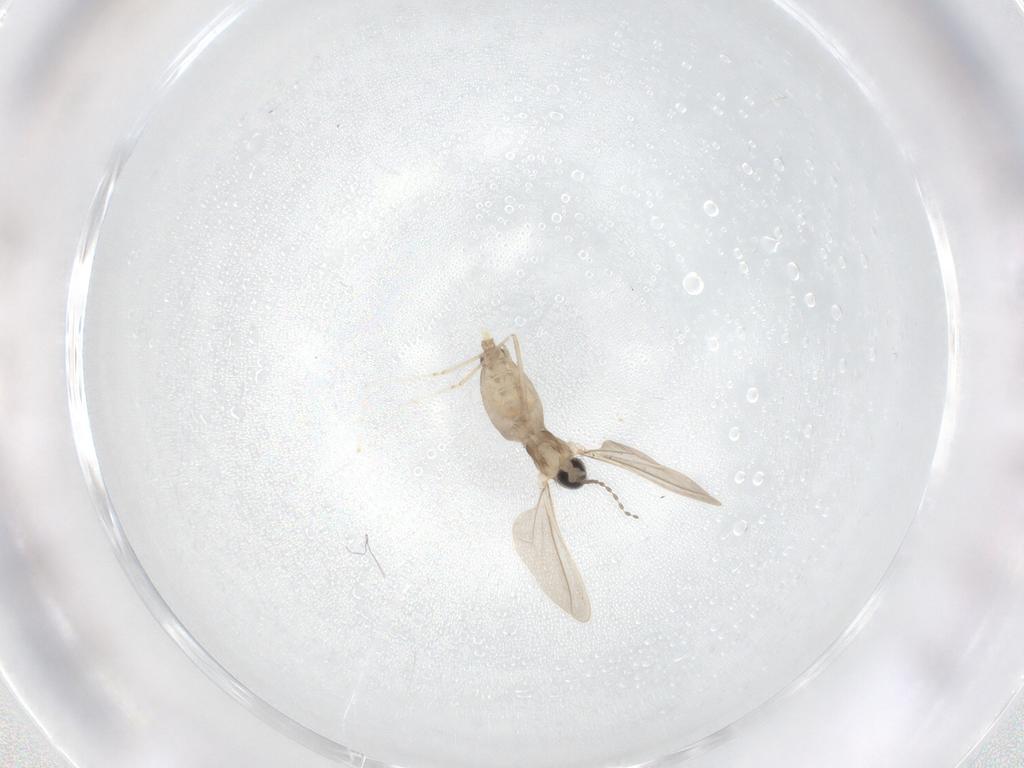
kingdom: Animalia
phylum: Arthropoda
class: Insecta
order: Diptera
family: Cecidomyiidae
